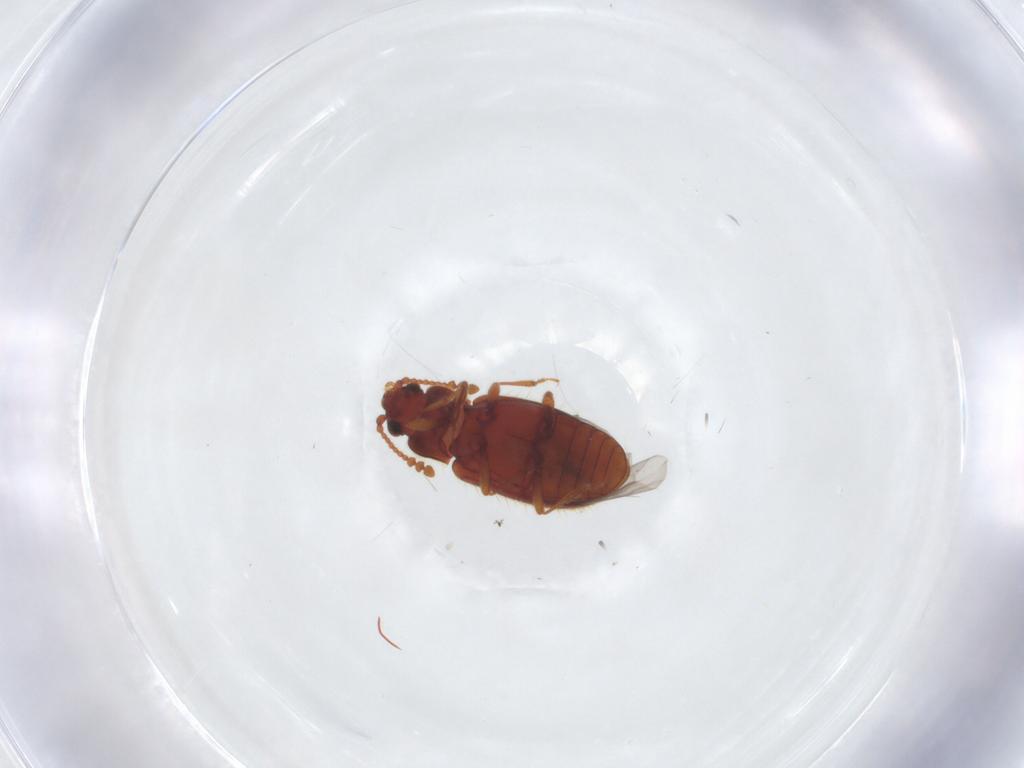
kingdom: Animalia
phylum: Arthropoda
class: Insecta
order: Coleoptera
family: Cryptophagidae
